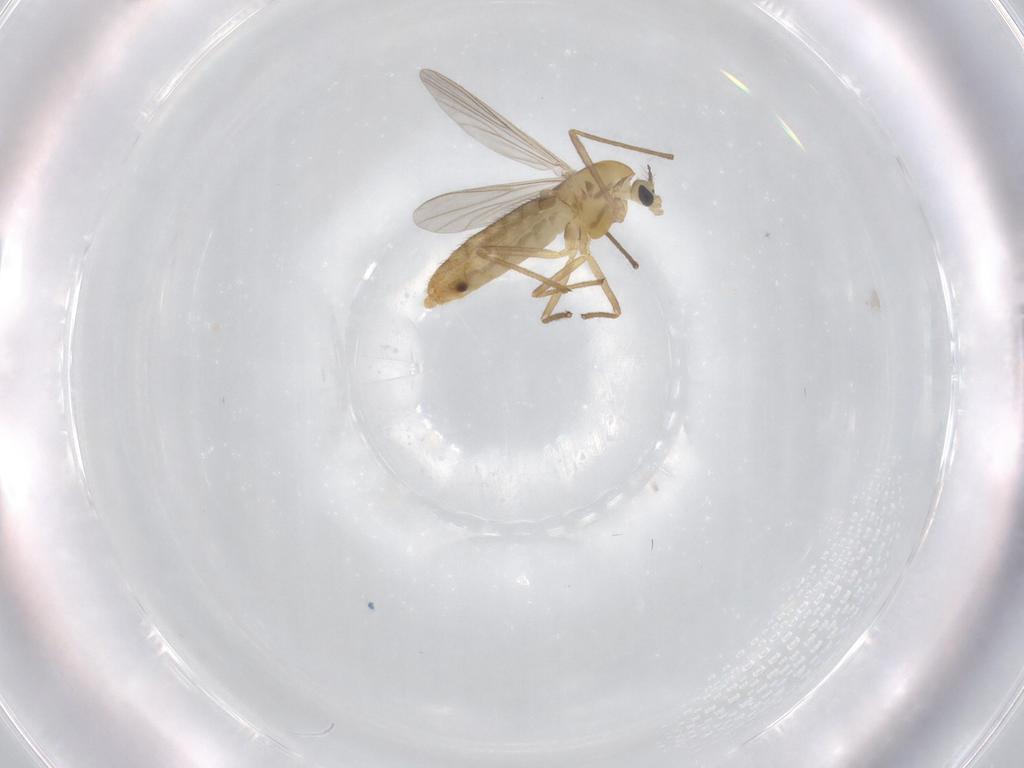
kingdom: Animalia
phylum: Arthropoda
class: Insecta
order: Diptera
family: Chironomidae
